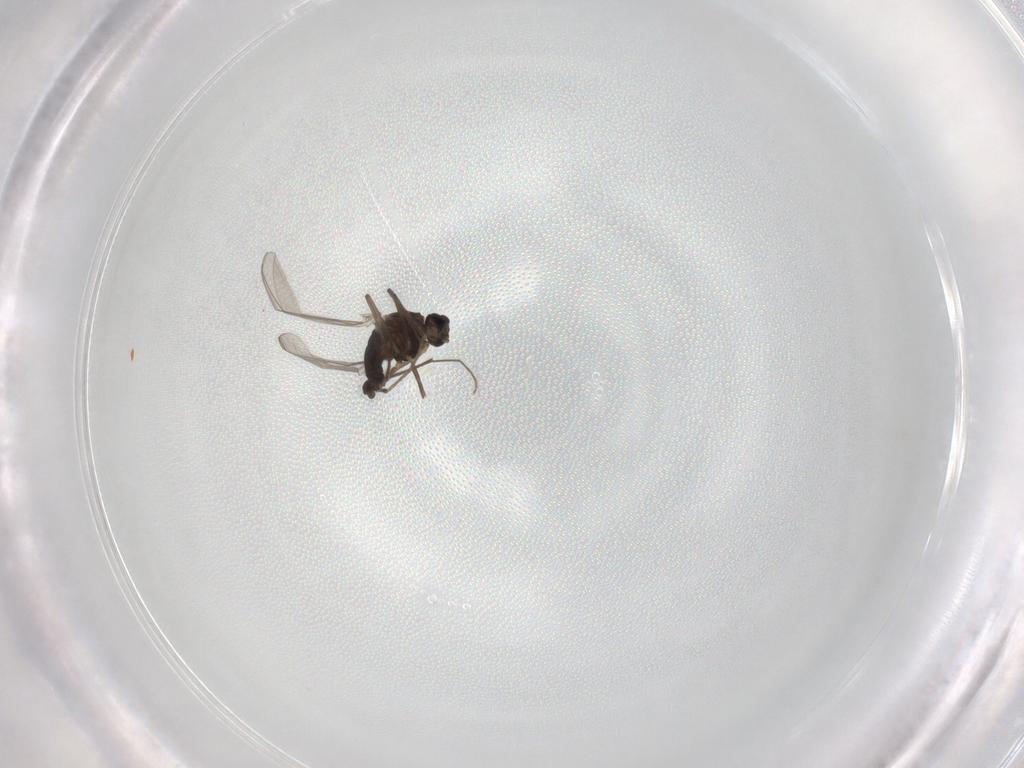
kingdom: Animalia
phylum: Arthropoda
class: Insecta
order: Diptera
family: Chironomidae
